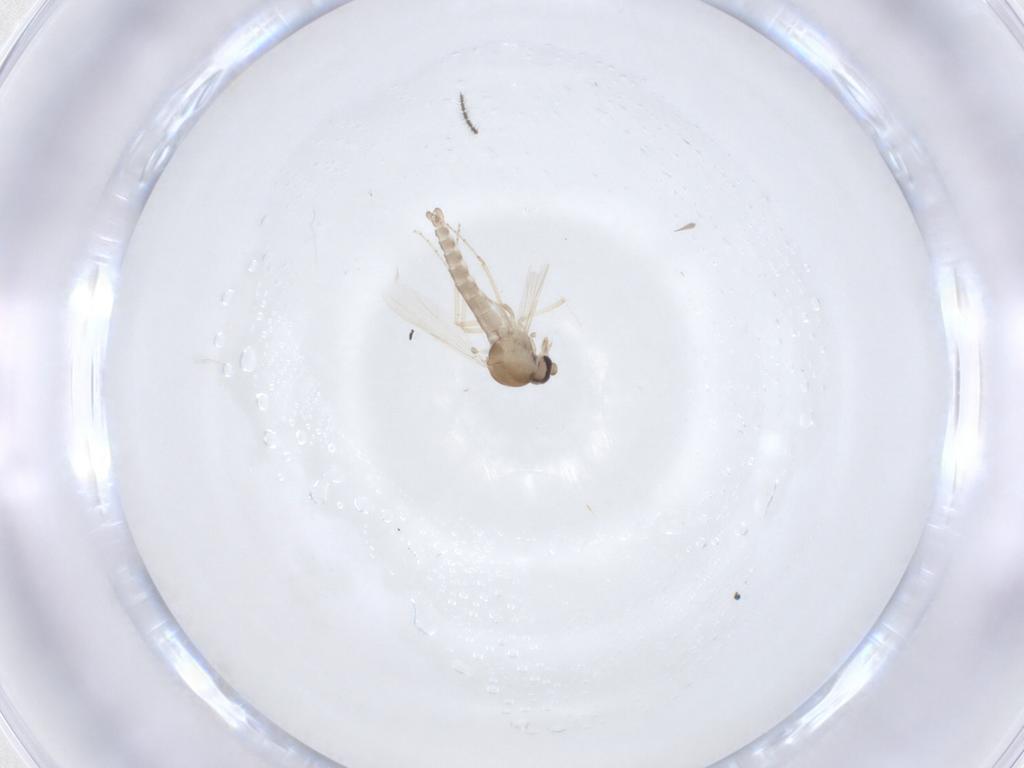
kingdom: Animalia
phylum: Arthropoda
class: Insecta
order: Diptera
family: Ceratopogonidae
